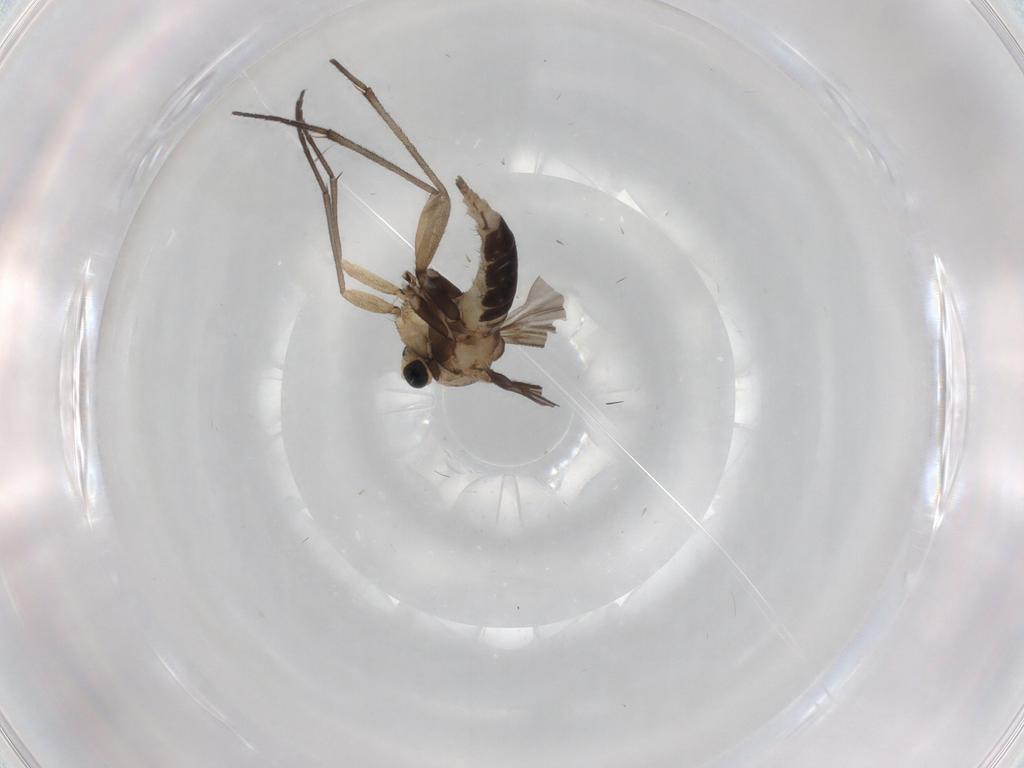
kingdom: Animalia
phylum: Arthropoda
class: Insecta
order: Diptera
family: Sciaridae
